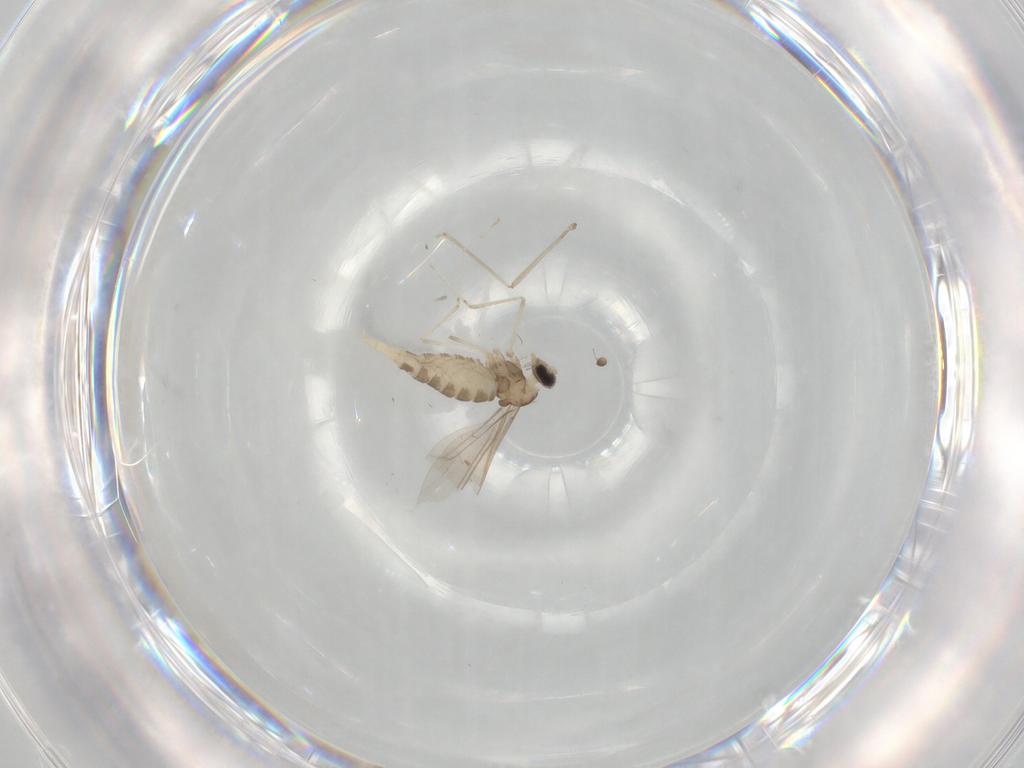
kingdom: Animalia
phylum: Arthropoda
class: Insecta
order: Diptera
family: Cecidomyiidae
